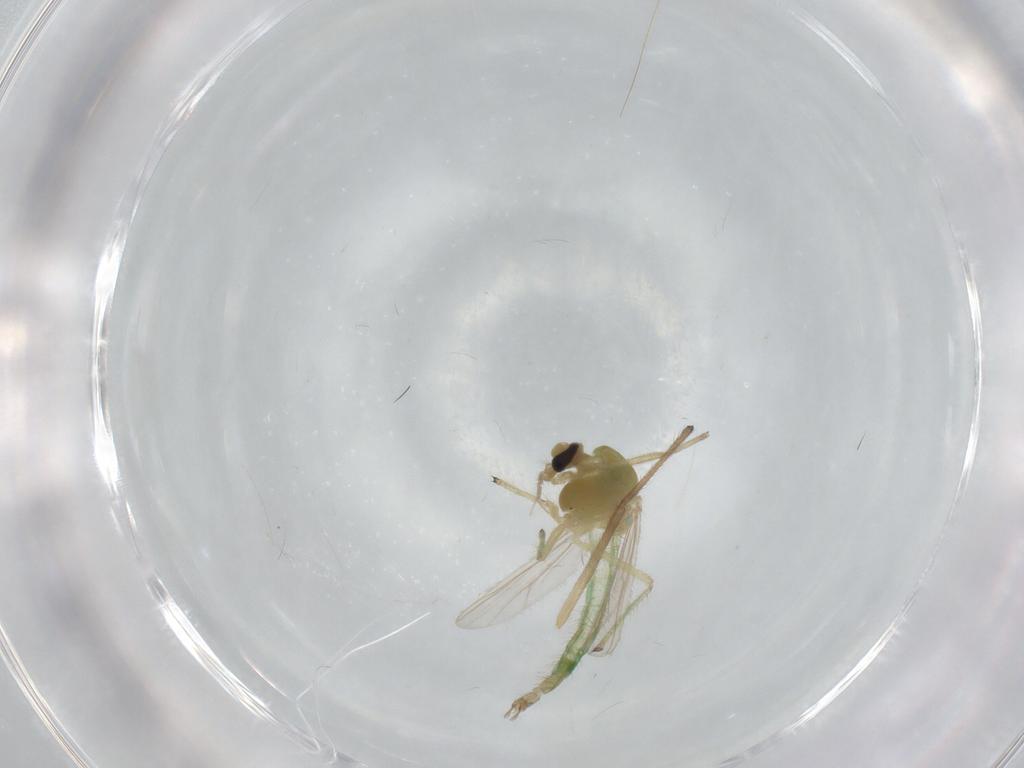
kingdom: Animalia
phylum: Arthropoda
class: Insecta
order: Diptera
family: Chironomidae
